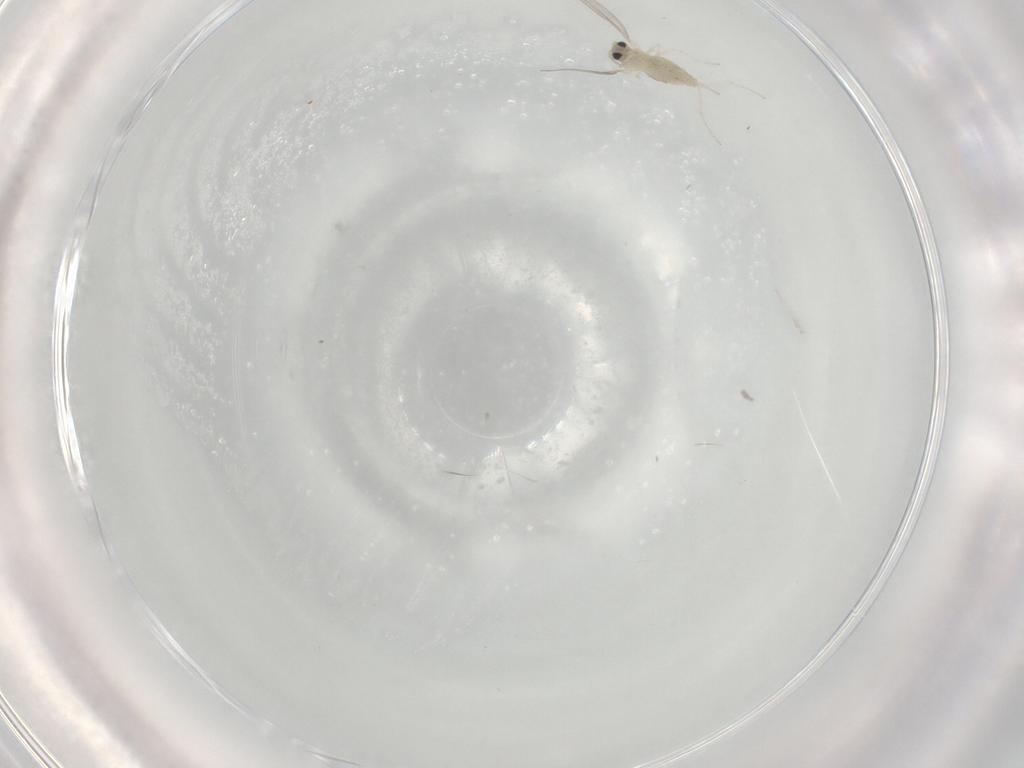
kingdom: Animalia
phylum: Arthropoda
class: Insecta
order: Diptera
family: Cecidomyiidae
